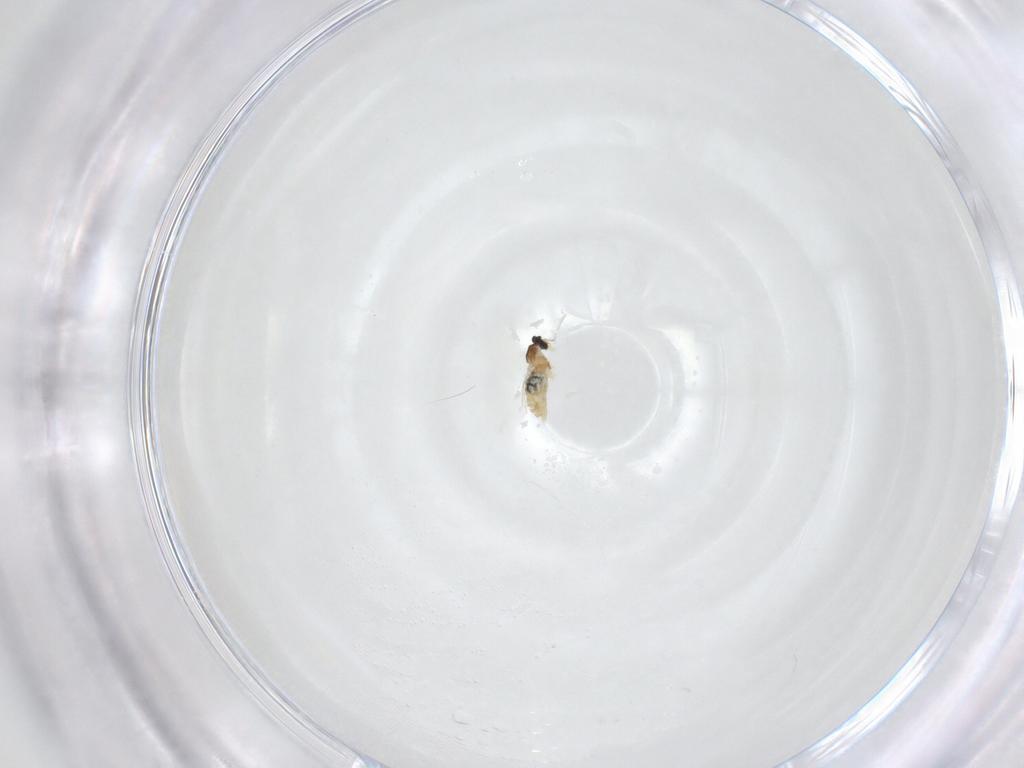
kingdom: Animalia
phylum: Arthropoda
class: Insecta
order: Diptera
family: Cecidomyiidae
